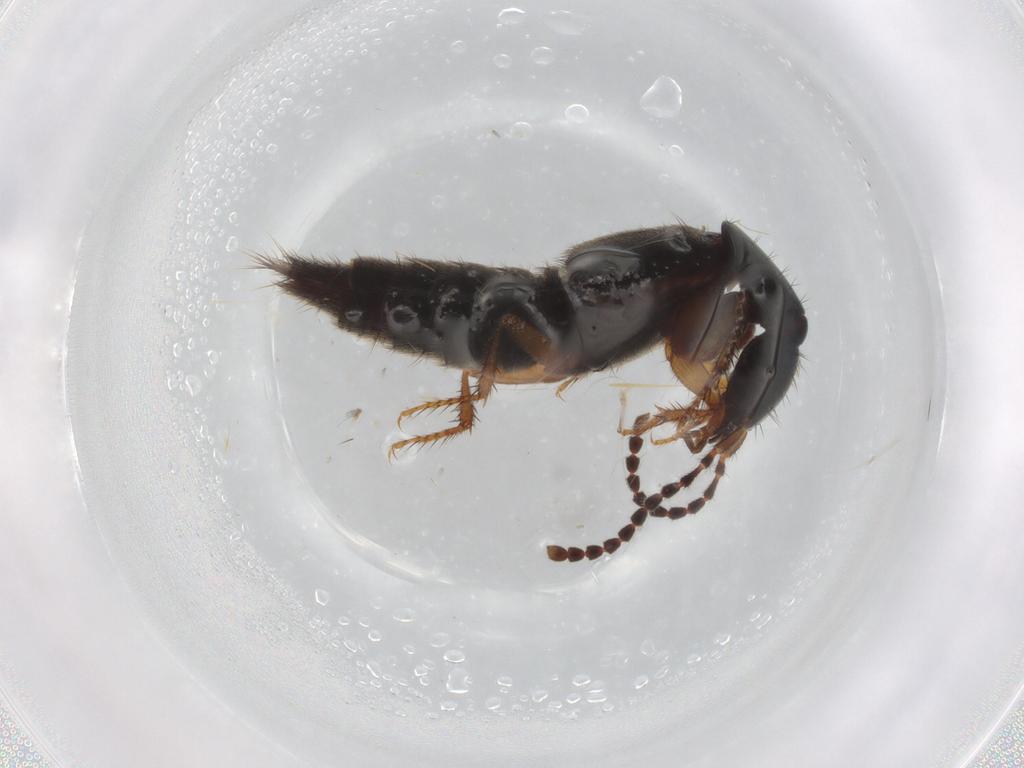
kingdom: Animalia
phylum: Arthropoda
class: Insecta
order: Coleoptera
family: Staphylinidae
